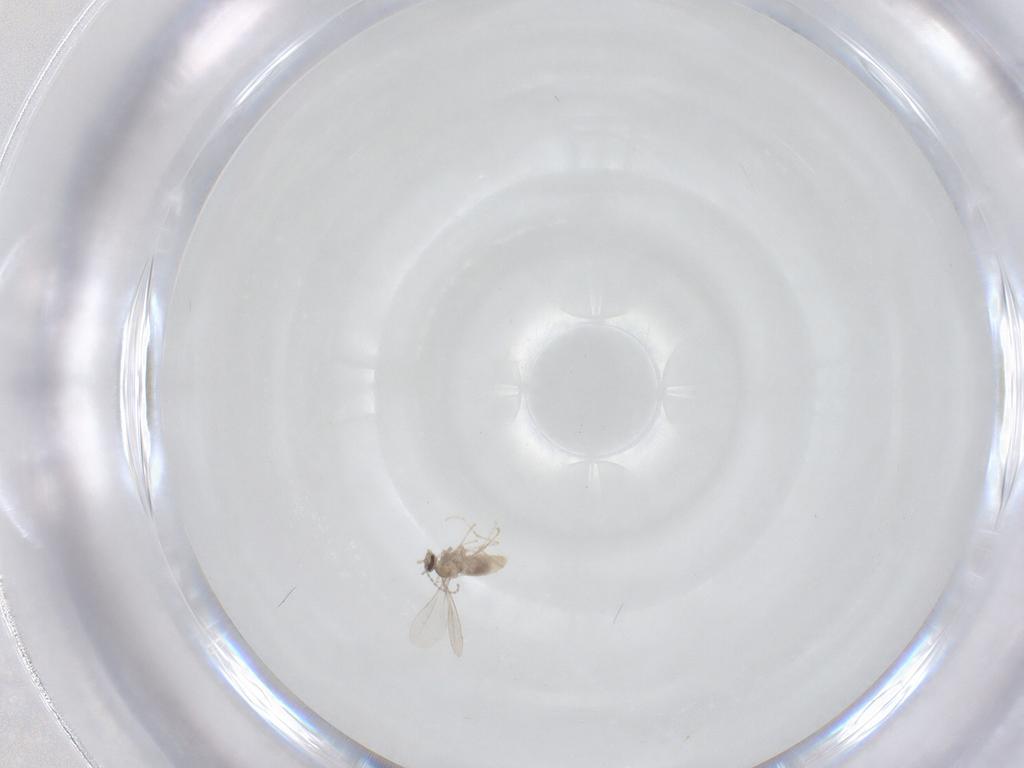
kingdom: Animalia
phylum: Arthropoda
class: Insecta
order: Diptera
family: Cecidomyiidae
